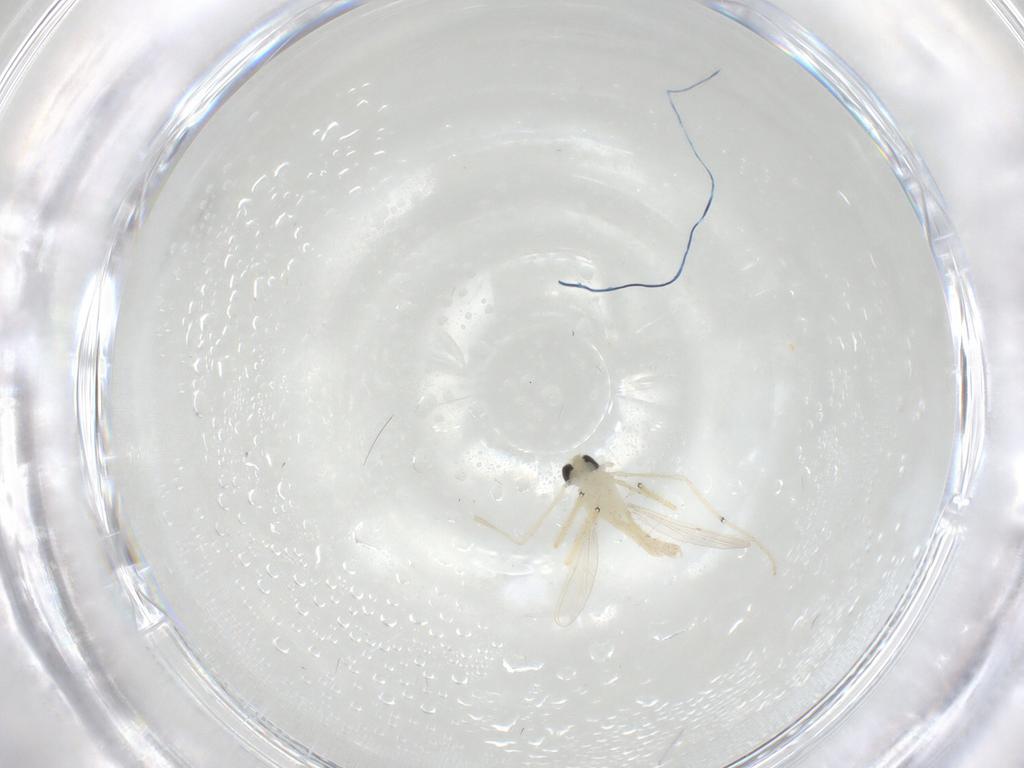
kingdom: Animalia
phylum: Arthropoda
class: Insecta
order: Diptera
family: Chironomidae
